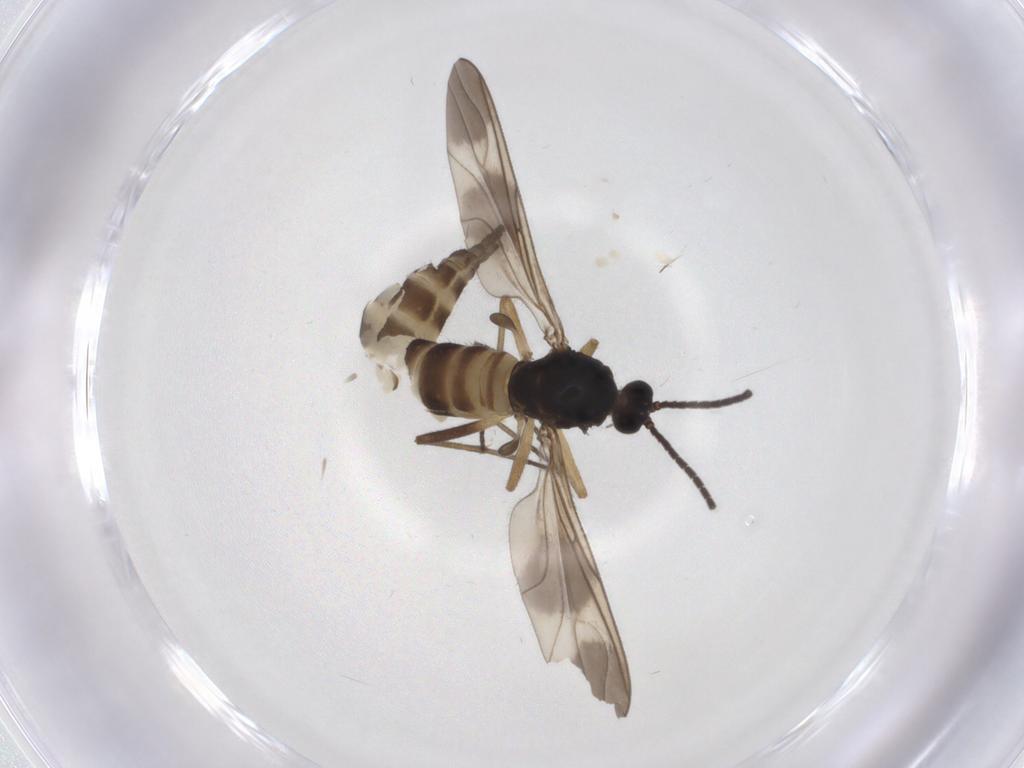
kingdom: Animalia
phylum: Arthropoda
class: Insecta
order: Diptera
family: Sciaridae
